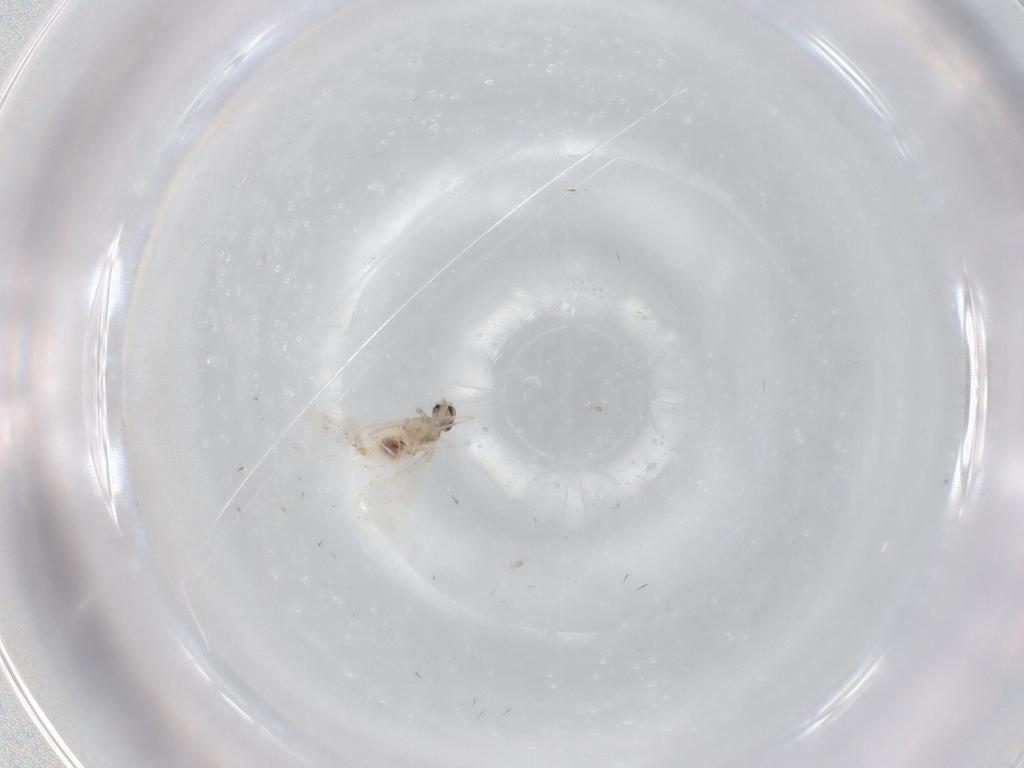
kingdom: Animalia
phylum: Arthropoda
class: Insecta
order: Diptera
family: Cecidomyiidae
